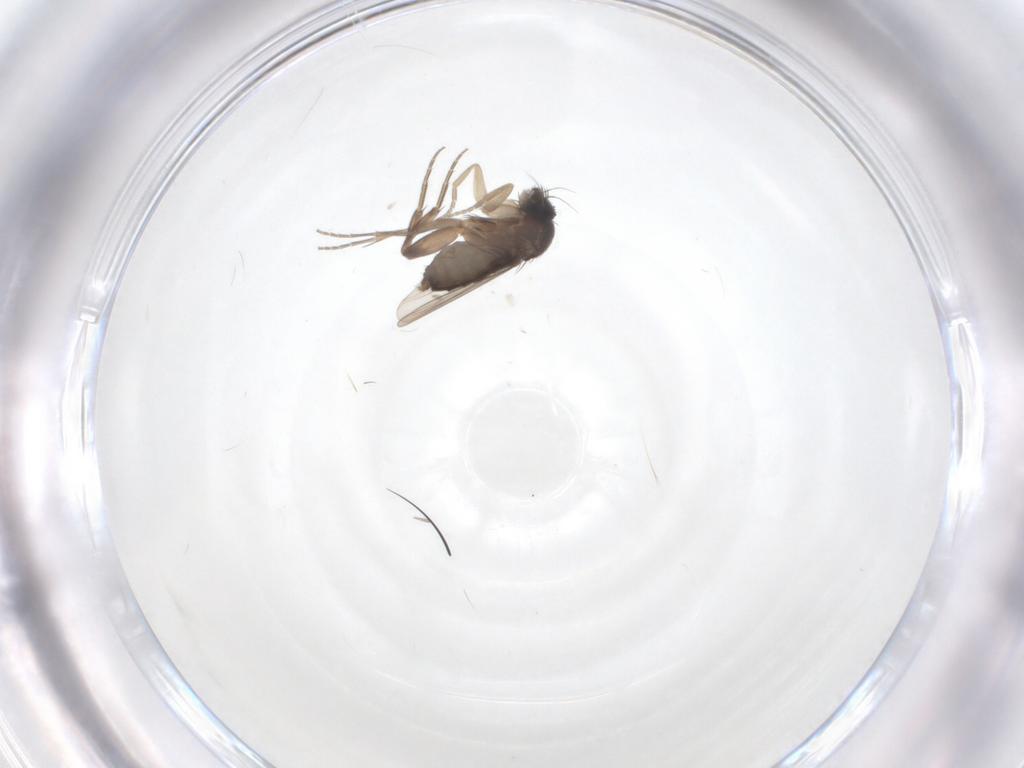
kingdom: Animalia
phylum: Arthropoda
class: Insecta
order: Diptera
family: Sciaridae
